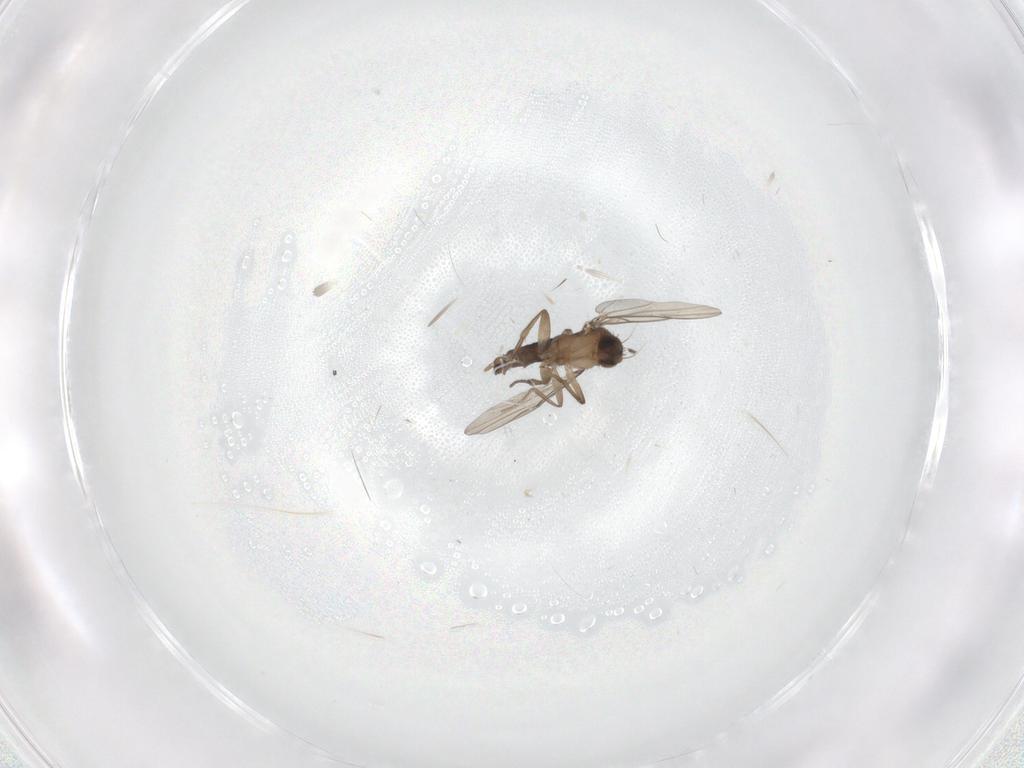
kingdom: Animalia
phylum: Arthropoda
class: Insecta
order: Diptera
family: Phoridae
